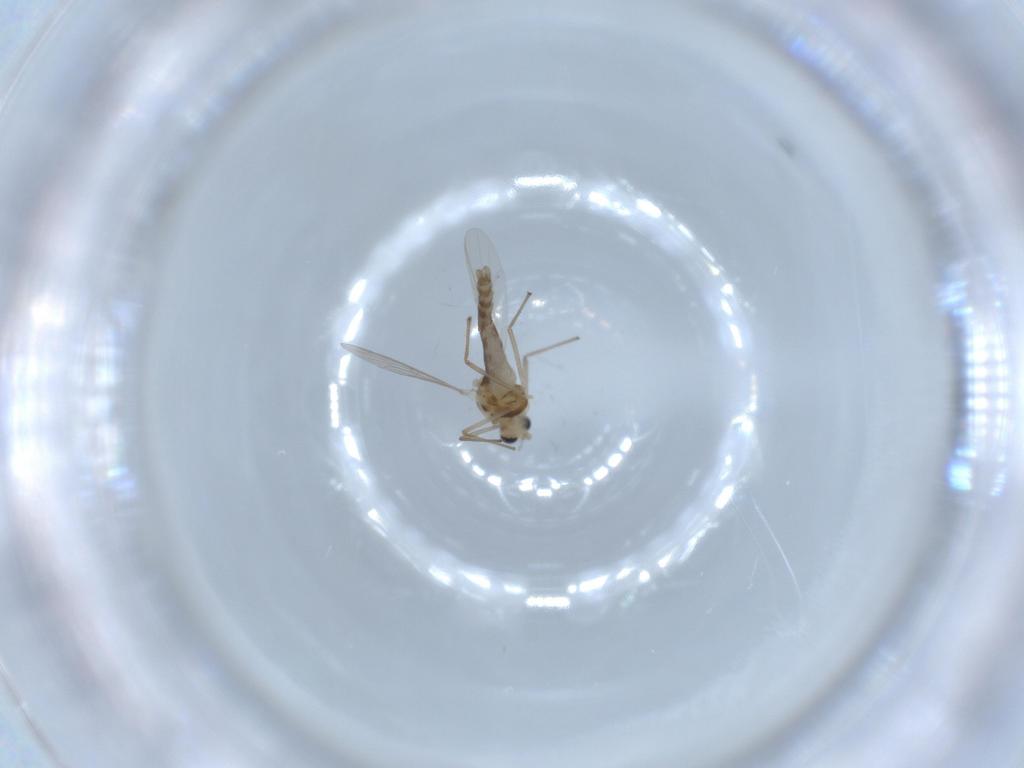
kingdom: Animalia
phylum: Arthropoda
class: Insecta
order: Diptera
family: Chironomidae
